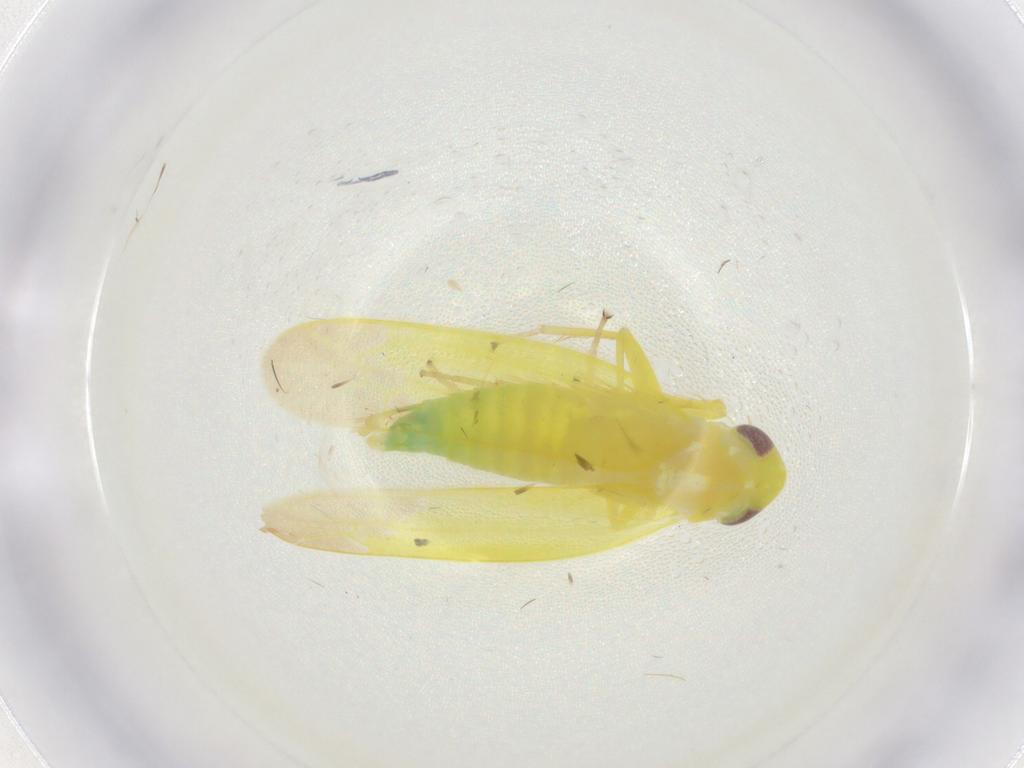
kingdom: Animalia
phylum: Arthropoda
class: Insecta
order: Hemiptera
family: Cicadellidae
